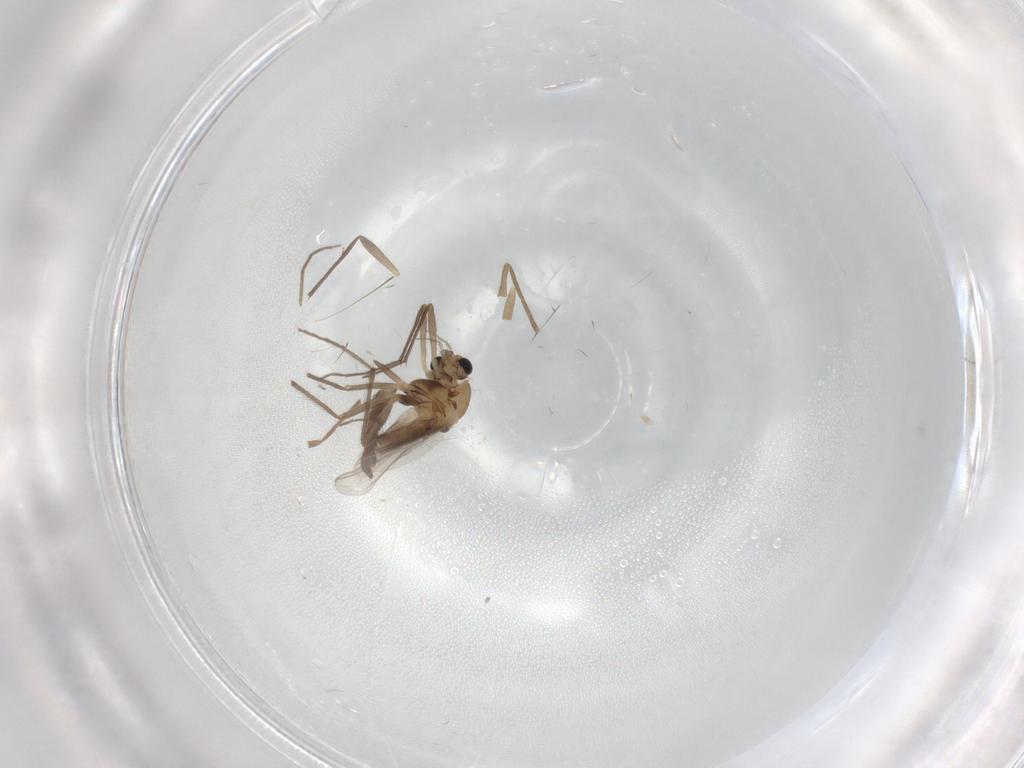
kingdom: Animalia
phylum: Arthropoda
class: Insecta
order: Diptera
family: Chironomidae
